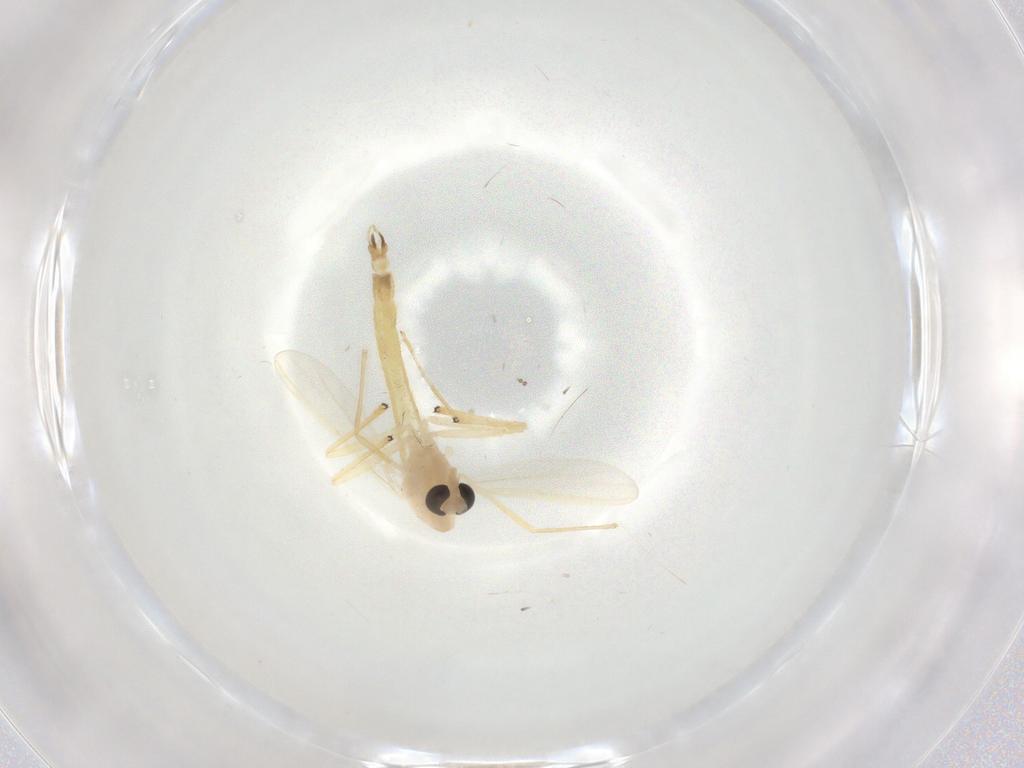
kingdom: Animalia
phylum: Arthropoda
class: Insecta
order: Diptera
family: Chironomidae
